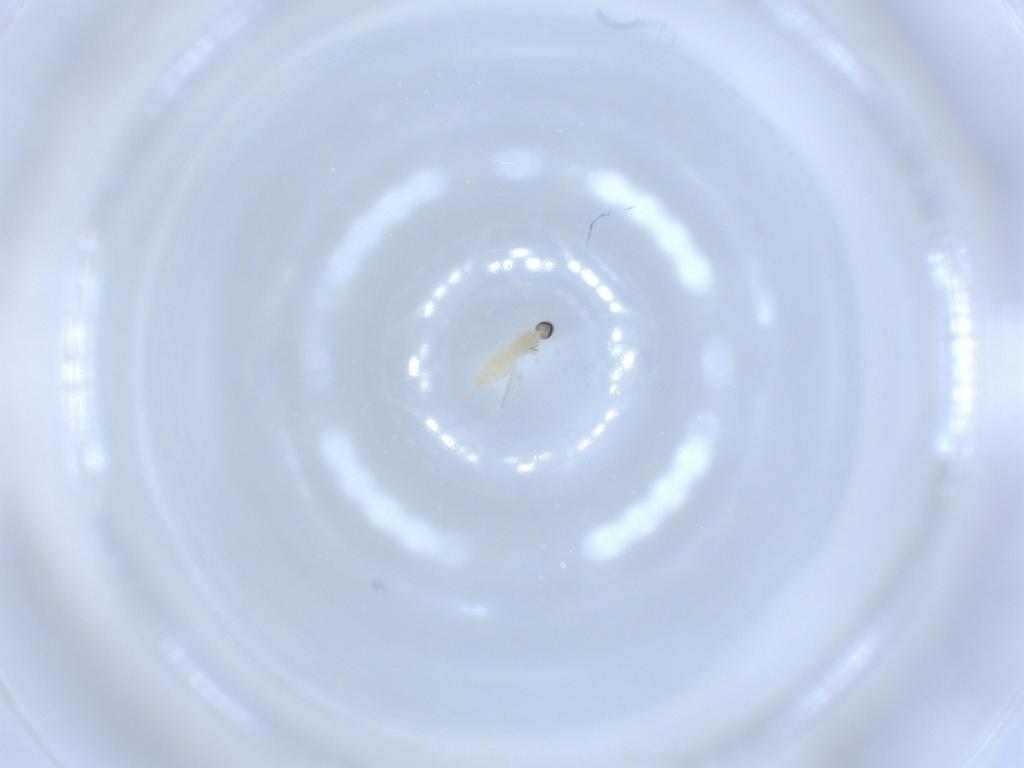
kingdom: Animalia
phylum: Arthropoda
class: Insecta
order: Diptera
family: Cecidomyiidae
